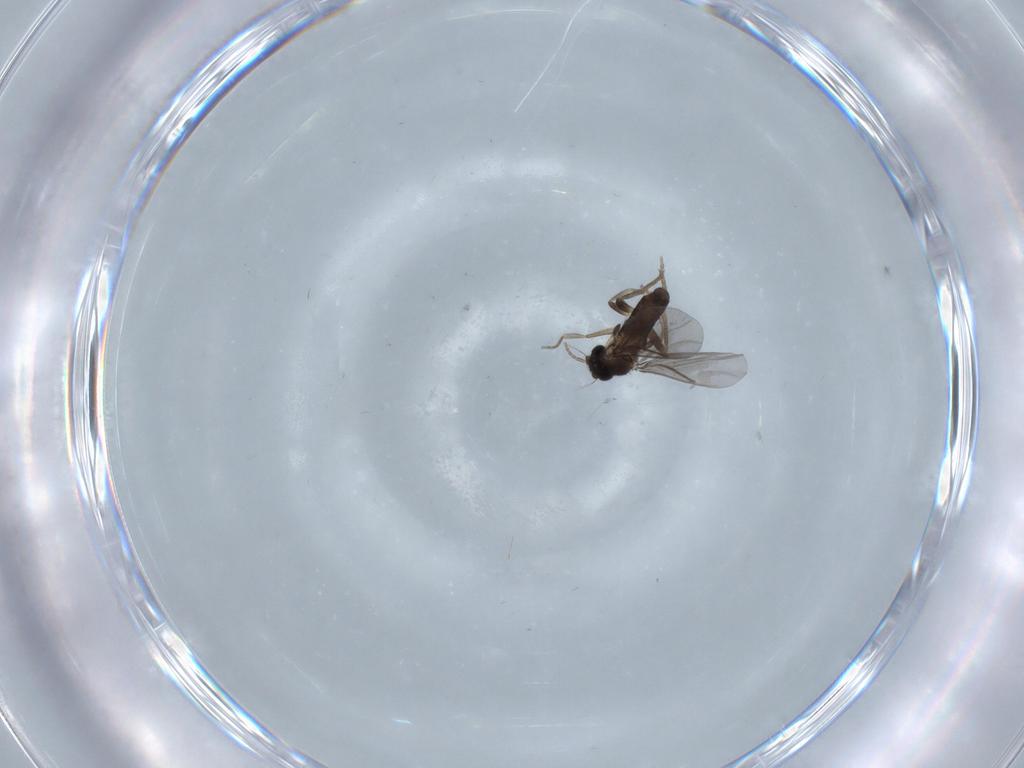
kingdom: Animalia
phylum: Arthropoda
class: Insecta
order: Diptera
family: Phoridae
